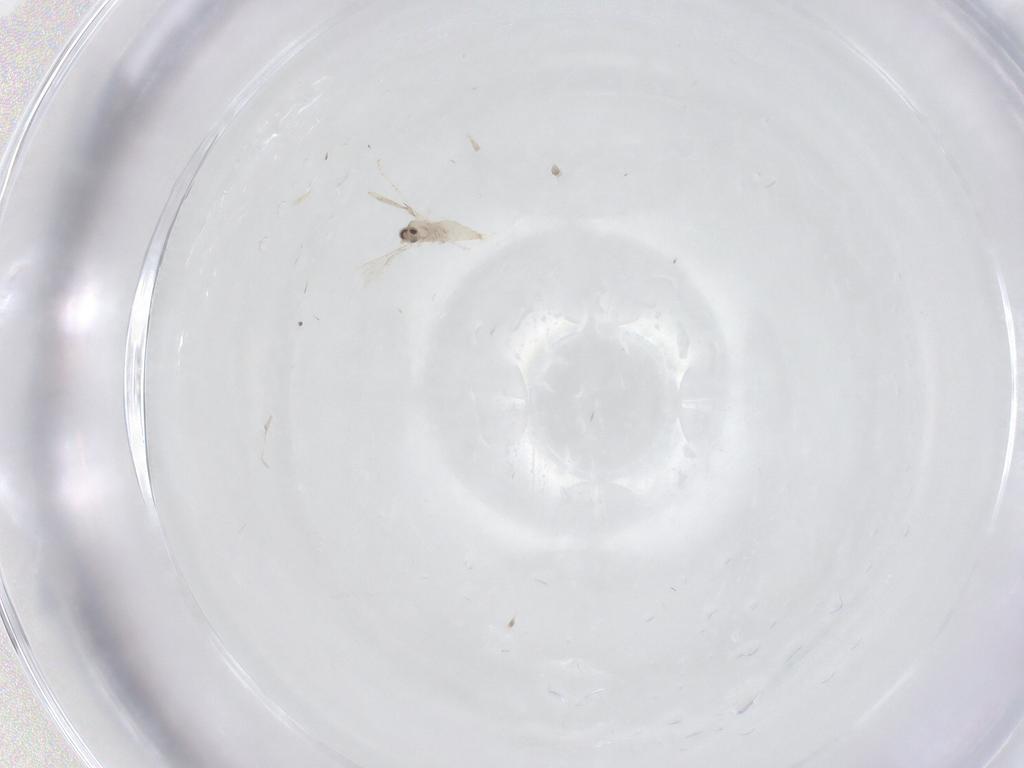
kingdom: Animalia
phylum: Arthropoda
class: Insecta
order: Diptera
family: Cecidomyiidae
